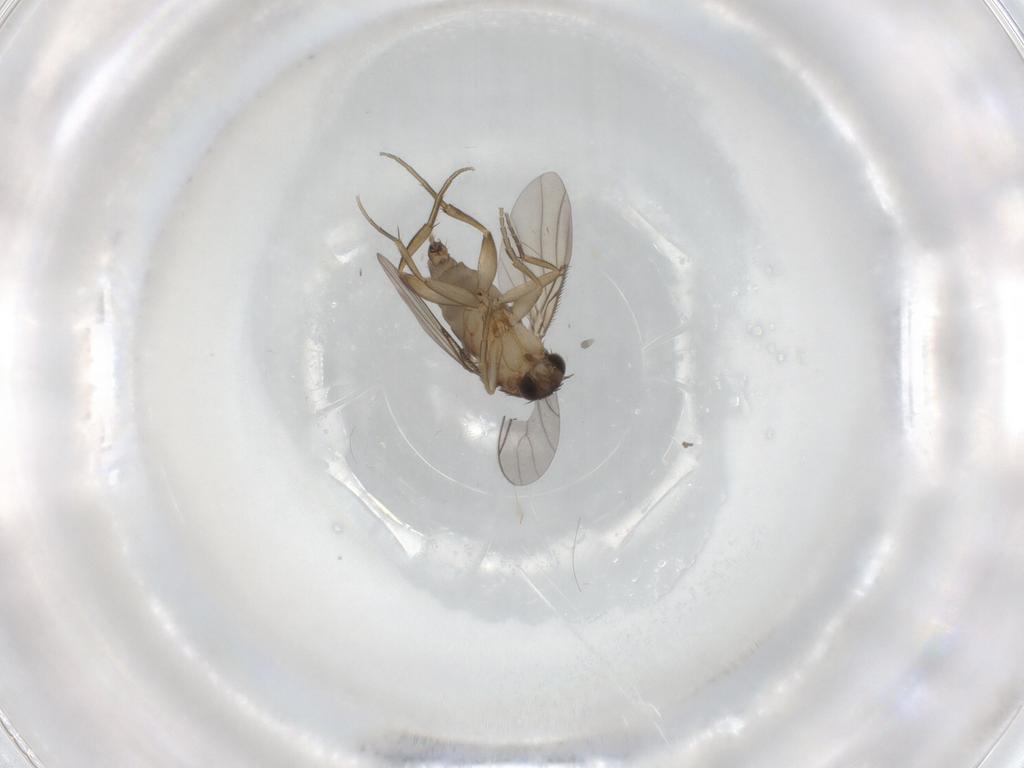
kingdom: Animalia
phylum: Arthropoda
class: Insecta
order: Diptera
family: Phoridae
